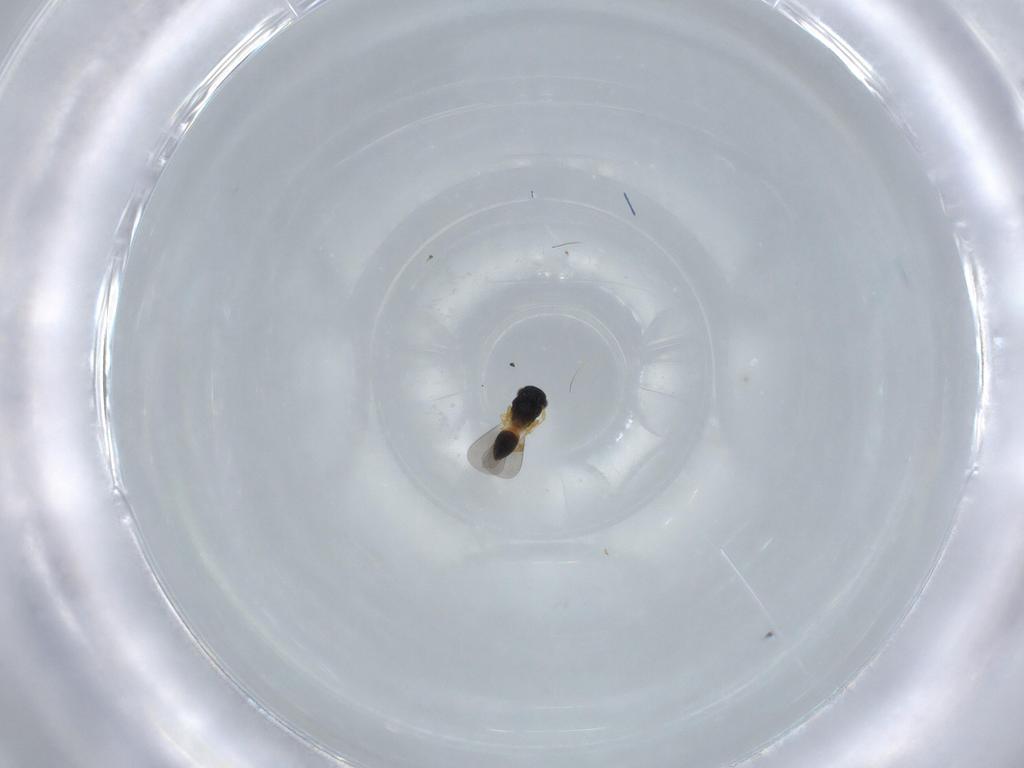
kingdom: Animalia
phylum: Arthropoda
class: Insecta
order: Hymenoptera
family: Platygastridae
